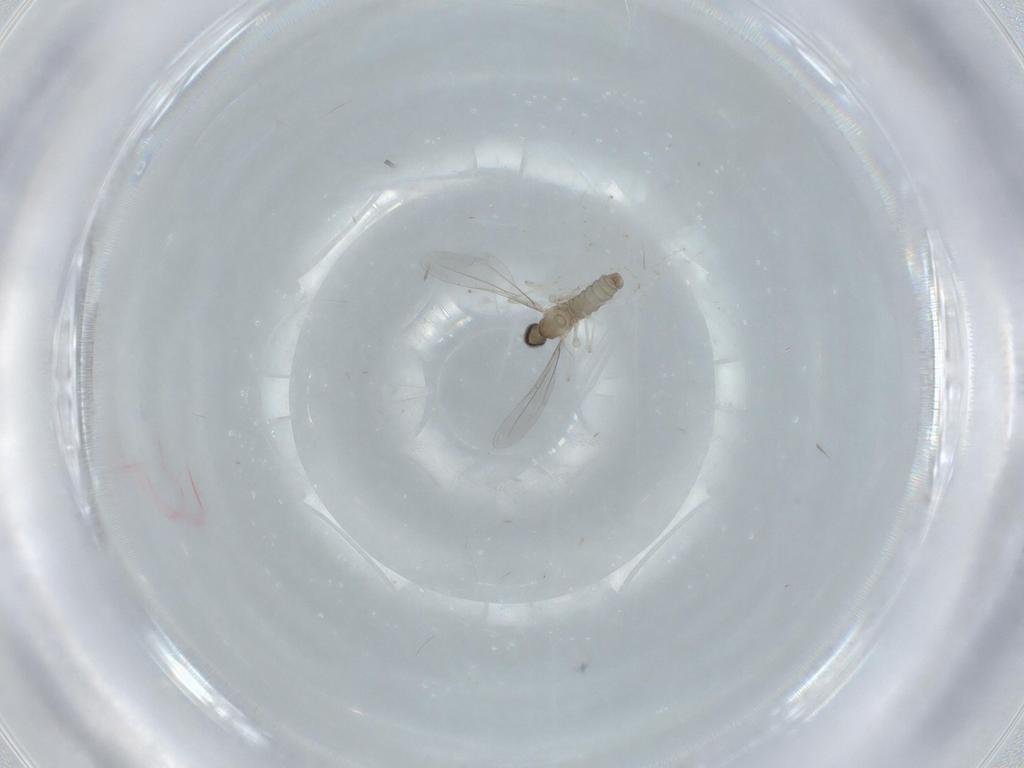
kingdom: Animalia
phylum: Arthropoda
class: Insecta
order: Diptera
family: Cecidomyiidae
